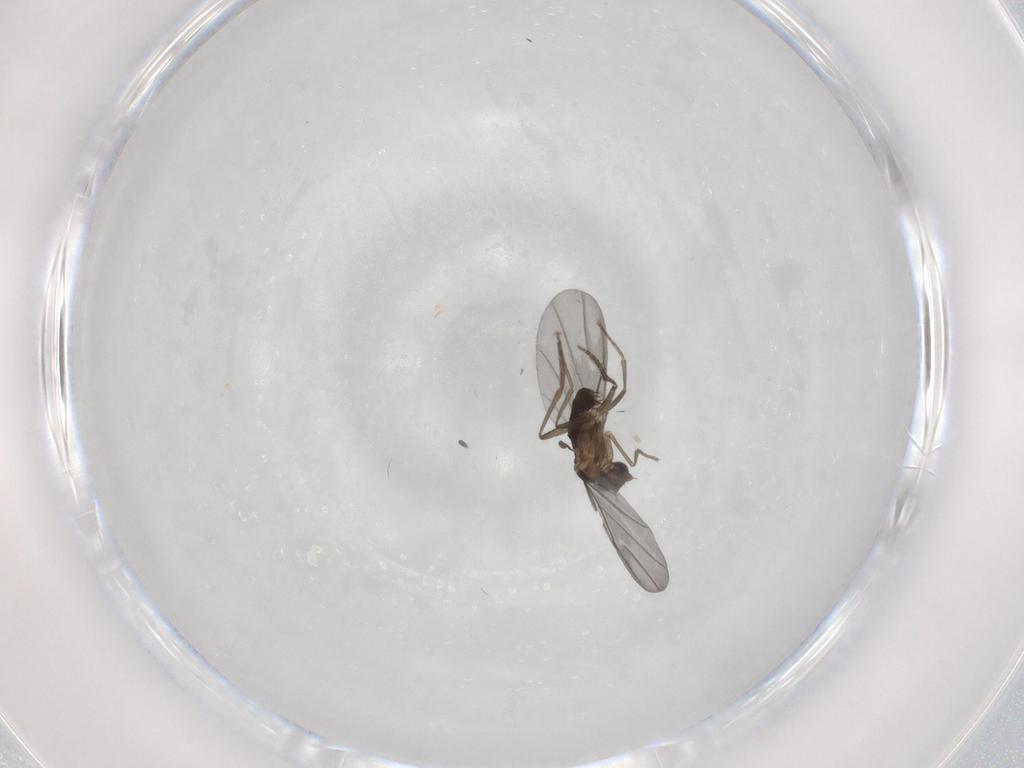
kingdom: Animalia
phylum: Arthropoda
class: Insecta
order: Diptera
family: Phoridae
